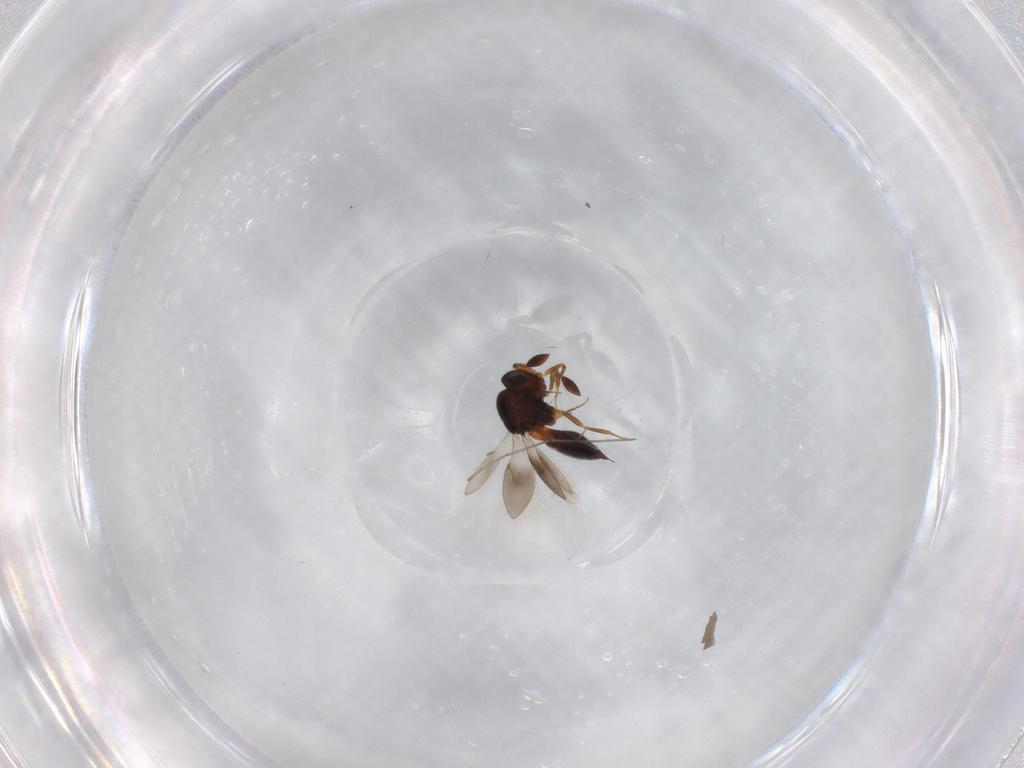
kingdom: Animalia
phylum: Arthropoda
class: Insecta
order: Hymenoptera
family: Scelionidae
